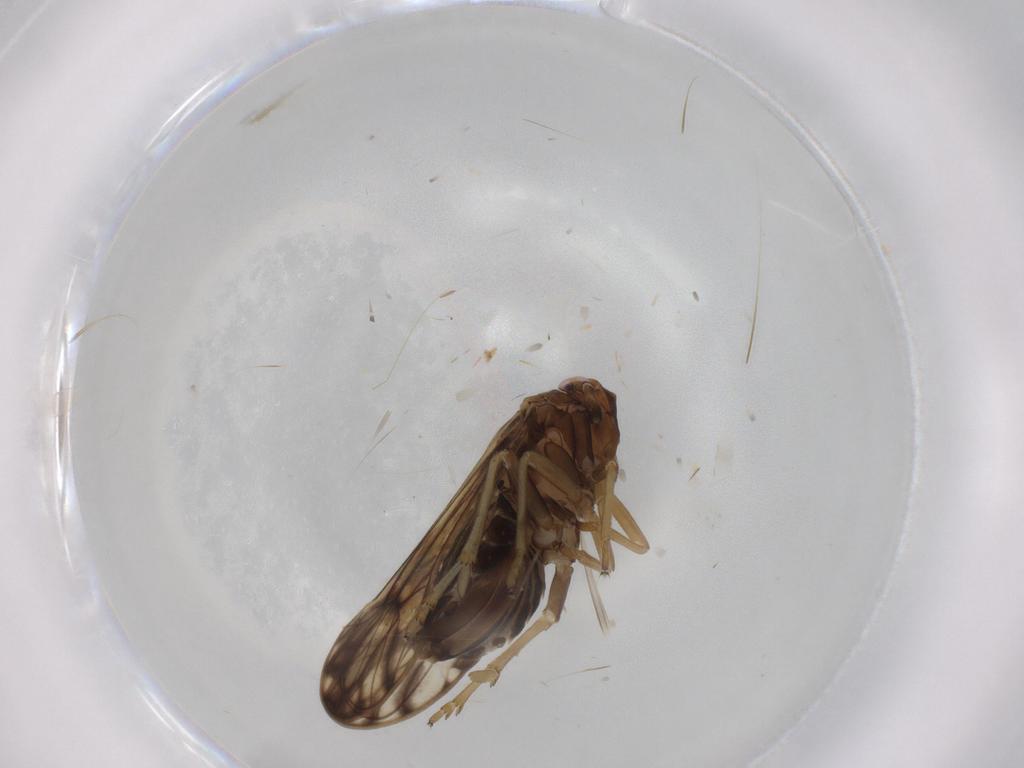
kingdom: Animalia
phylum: Arthropoda
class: Insecta
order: Hemiptera
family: Delphacidae
